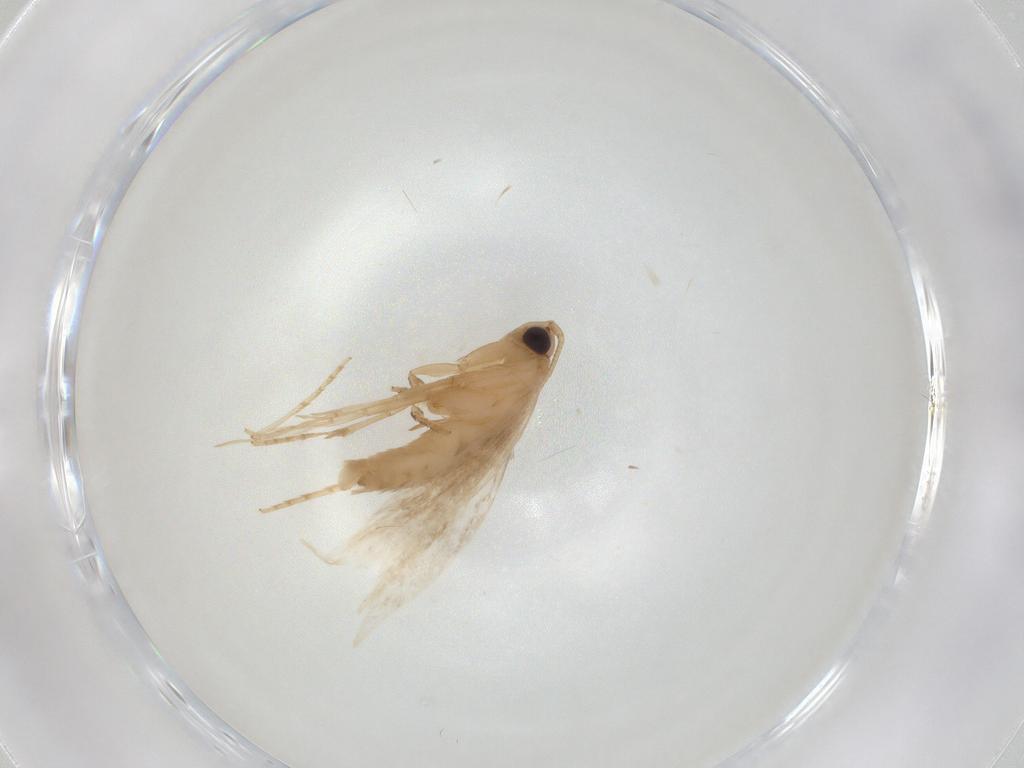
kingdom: Animalia
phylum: Arthropoda
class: Insecta
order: Lepidoptera
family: Tineidae
